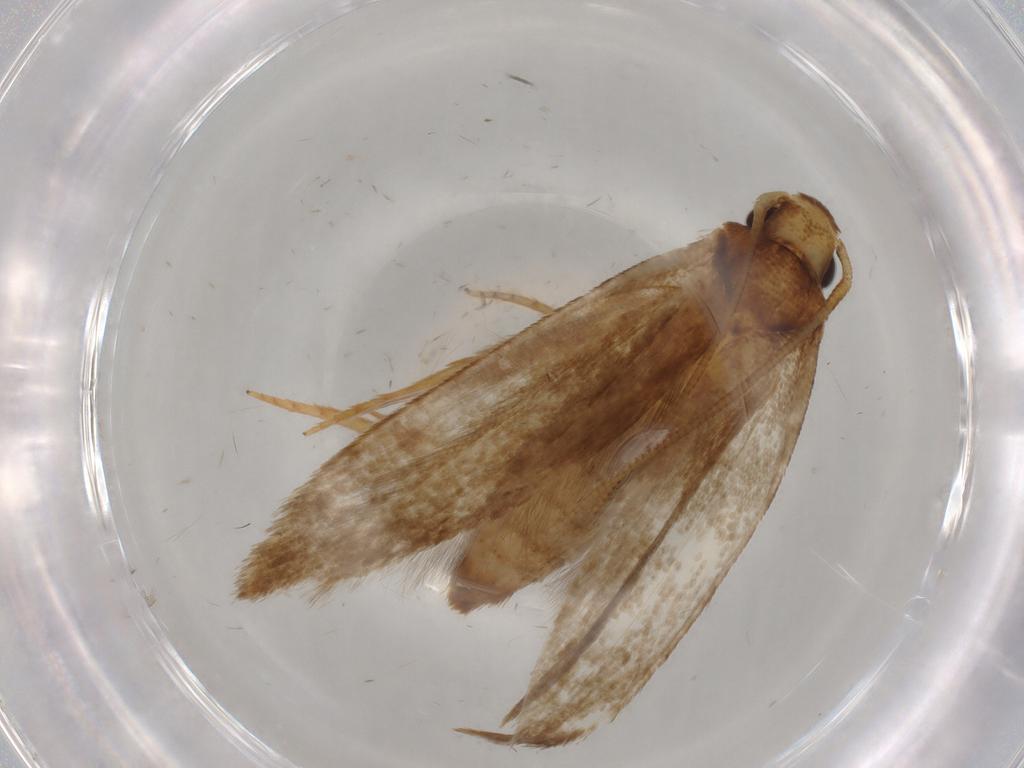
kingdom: Animalia
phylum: Arthropoda
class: Insecta
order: Lepidoptera
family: Tineidae
